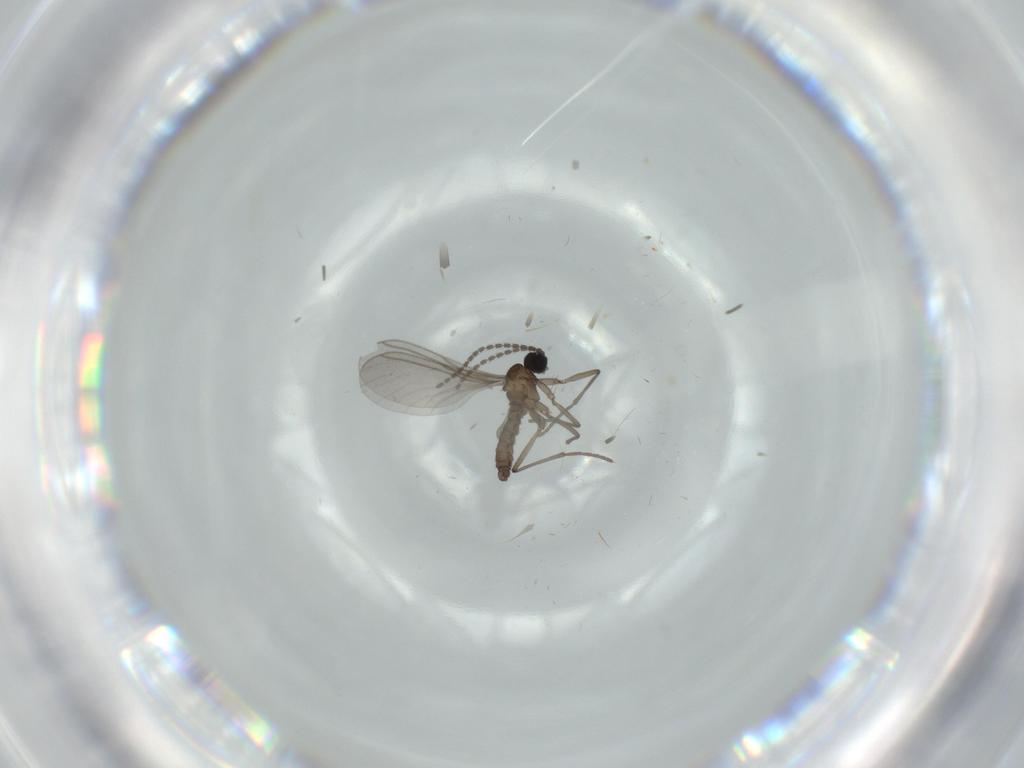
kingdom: Animalia
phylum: Arthropoda
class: Insecta
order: Diptera
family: Sciaridae
